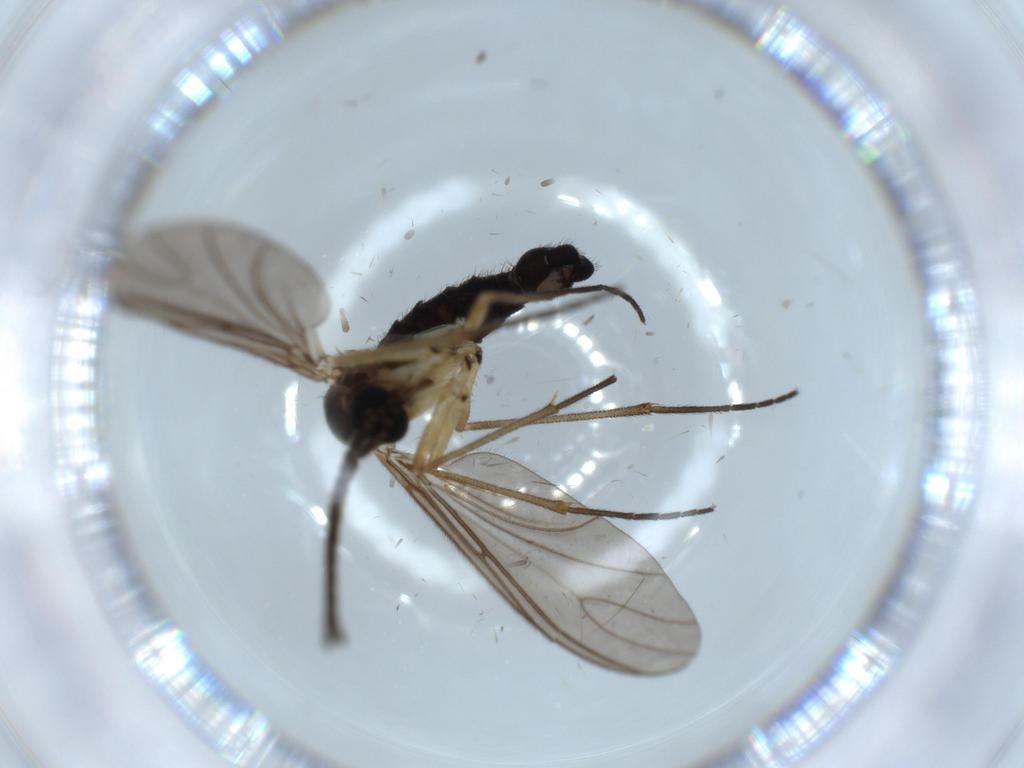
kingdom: Animalia
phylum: Arthropoda
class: Insecta
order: Diptera
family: Sciaridae
